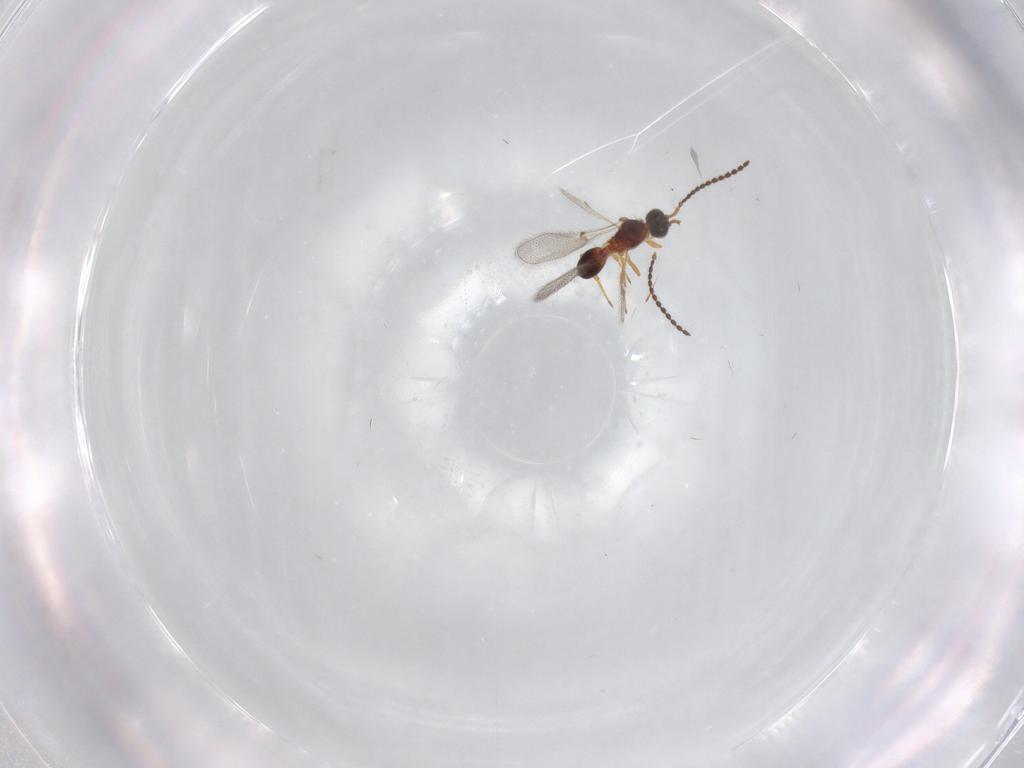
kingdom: Animalia
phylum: Arthropoda
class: Insecta
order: Hymenoptera
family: Diapriidae
